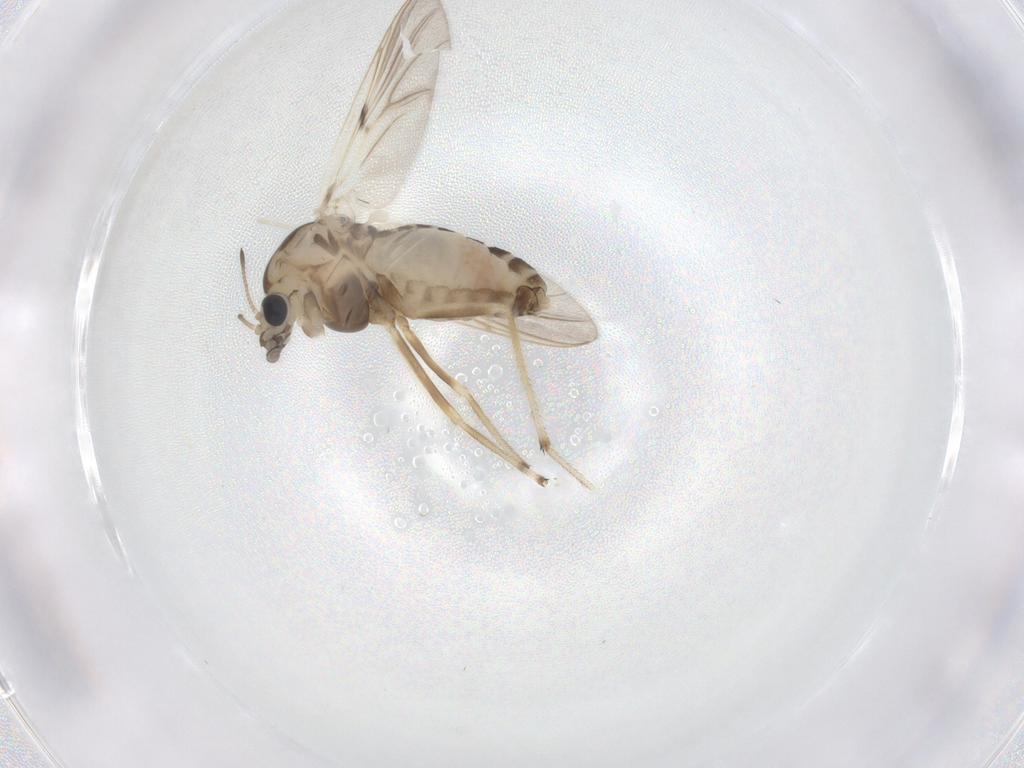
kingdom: Animalia
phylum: Arthropoda
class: Insecta
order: Diptera
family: Chironomidae
